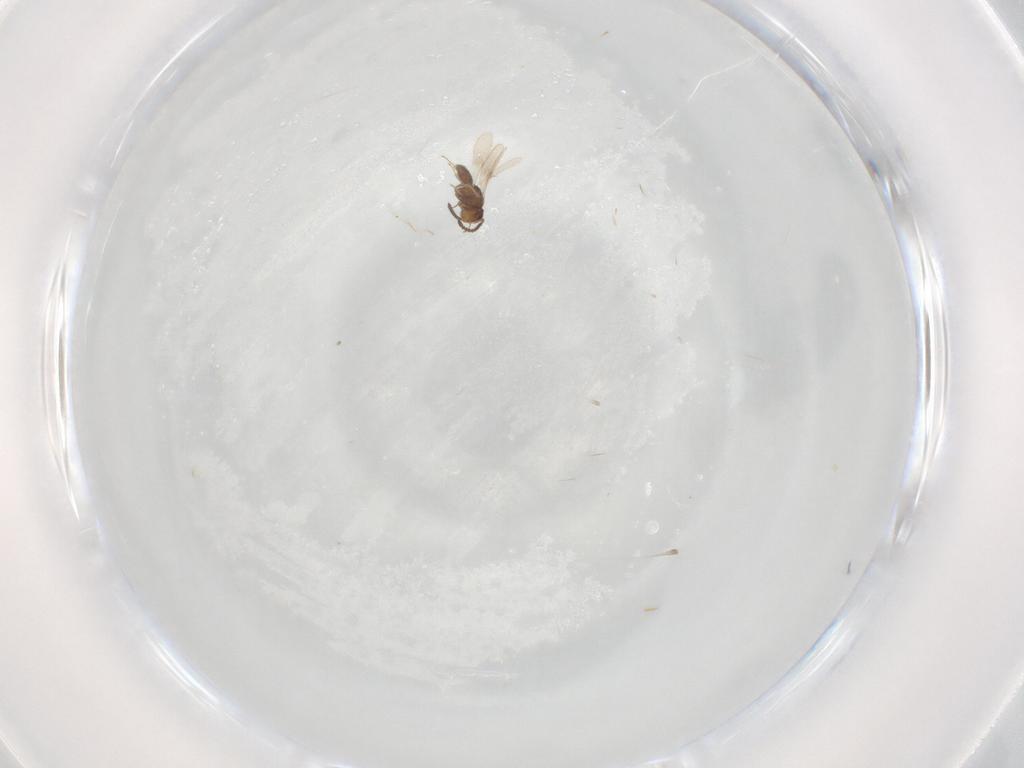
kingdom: Animalia
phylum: Arthropoda
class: Insecta
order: Hymenoptera
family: Scelionidae
